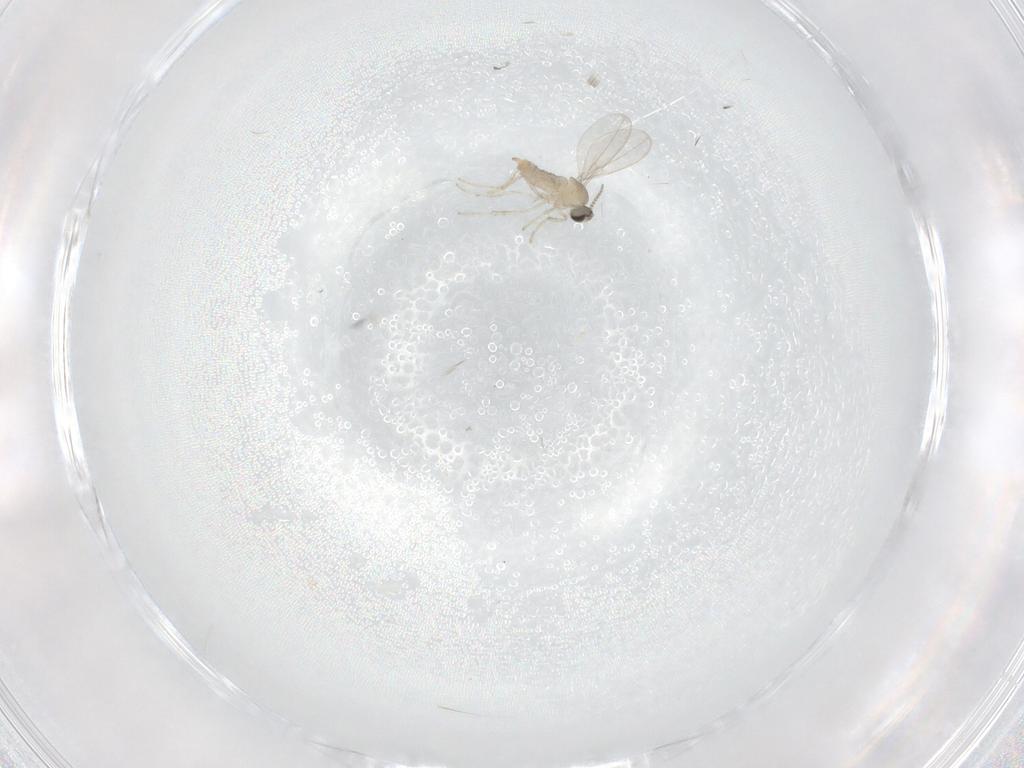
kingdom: Animalia
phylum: Arthropoda
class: Insecta
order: Diptera
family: Cecidomyiidae
